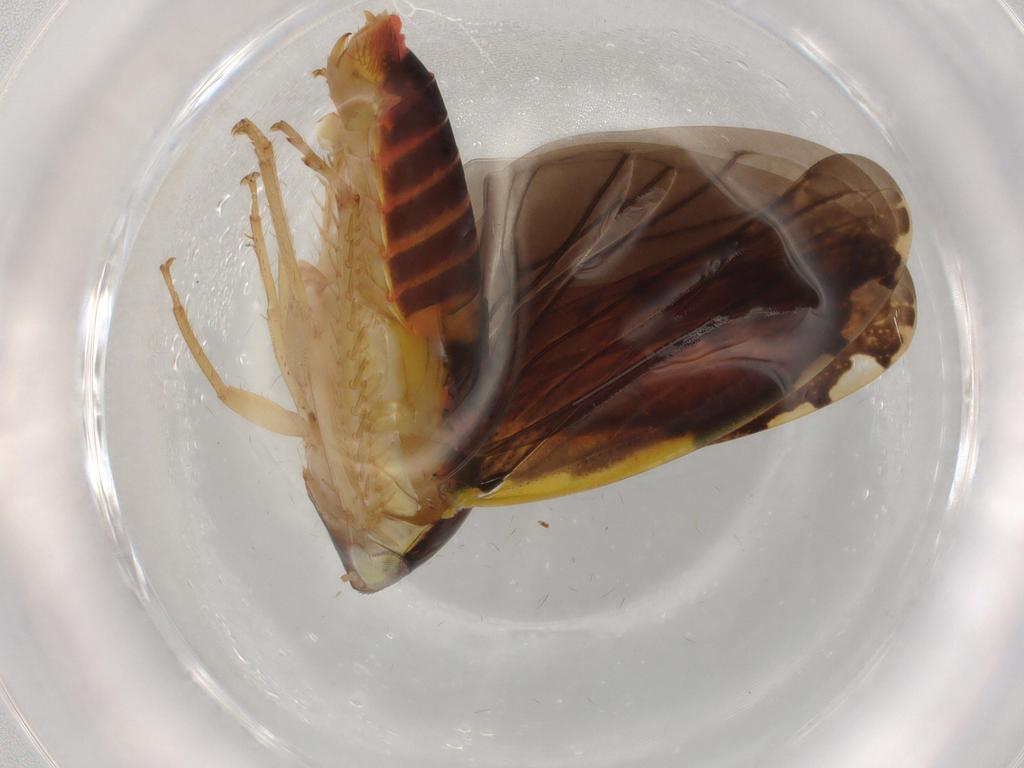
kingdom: Animalia
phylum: Arthropoda
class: Insecta
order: Hemiptera
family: Cicadellidae
